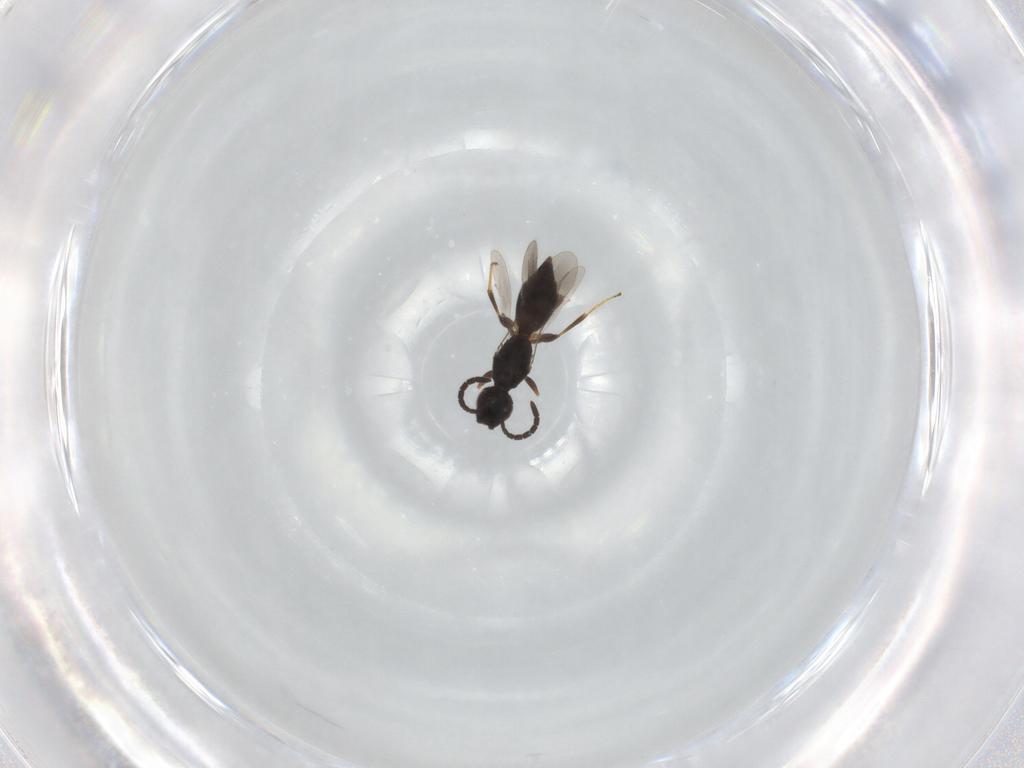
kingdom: Animalia
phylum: Arthropoda
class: Insecta
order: Hymenoptera
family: Megaspilidae
